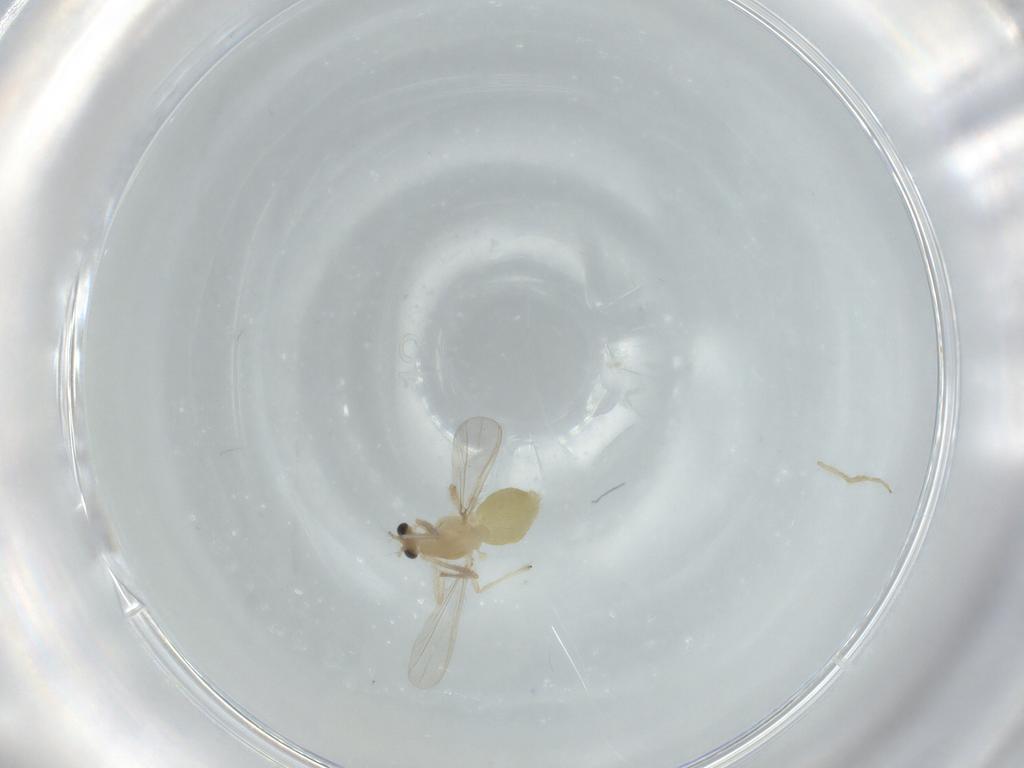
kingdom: Animalia
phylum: Arthropoda
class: Insecta
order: Diptera
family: Chironomidae
